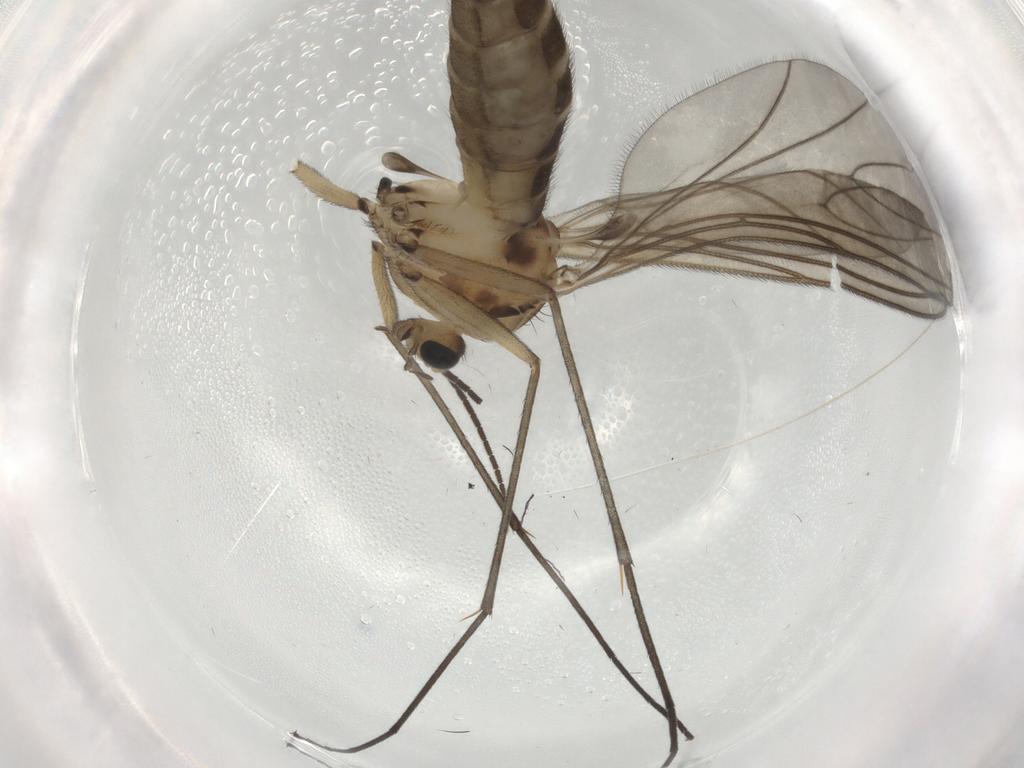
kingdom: Animalia
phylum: Arthropoda
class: Insecta
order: Diptera
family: Sciaridae
